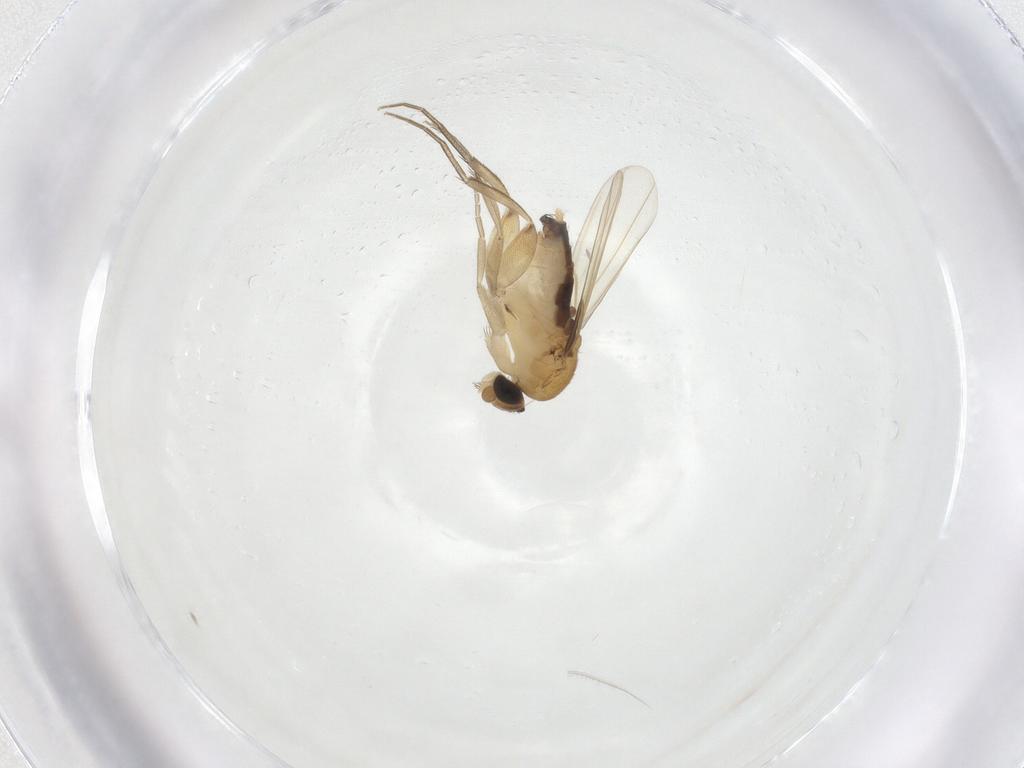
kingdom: Animalia
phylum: Arthropoda
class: Insecta
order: Diptera
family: Phoridae
